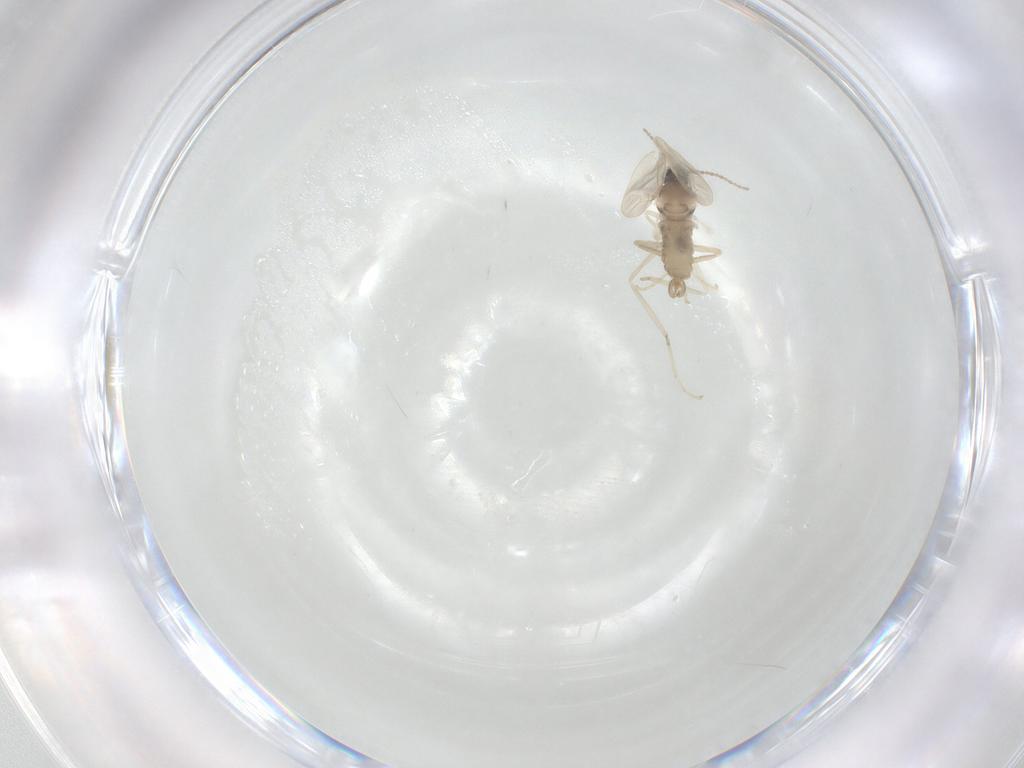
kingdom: Animalia
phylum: Arthropoda
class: Insecta
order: Diptera
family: Cecidomyiidae
